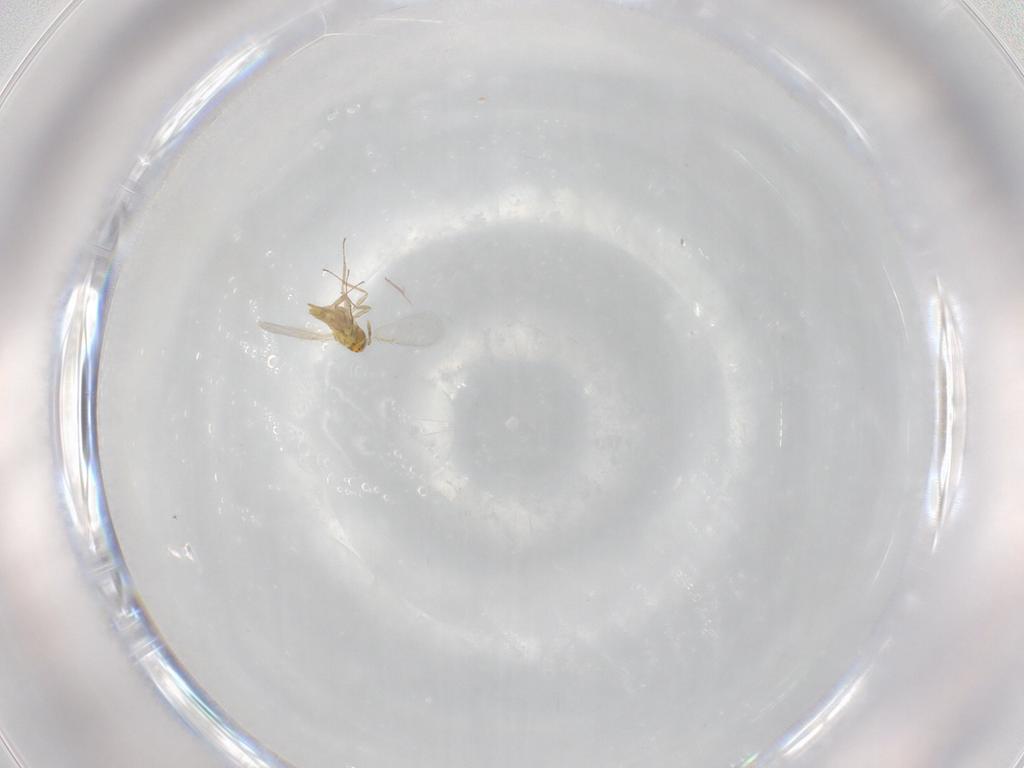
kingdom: Animalia
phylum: Arthropoda
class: Insecta
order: Hymenoptera
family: Aphelinidae
